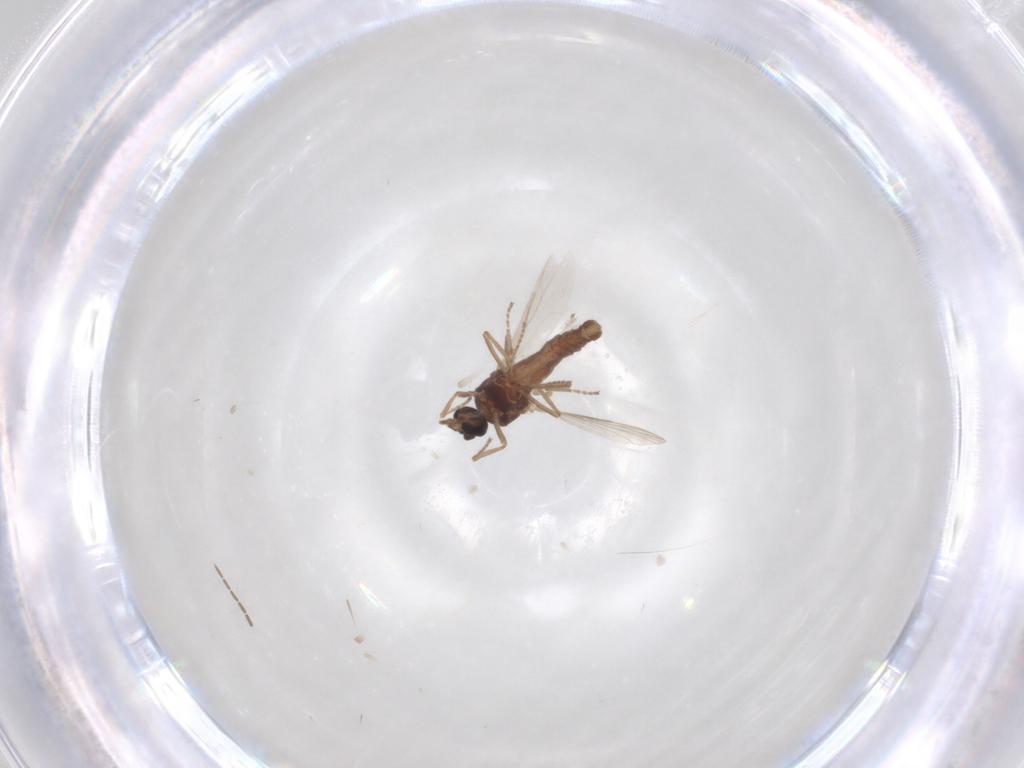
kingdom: Animalia
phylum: Arthropoda
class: Insecta
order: Diptera
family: Ceratopogonidae
